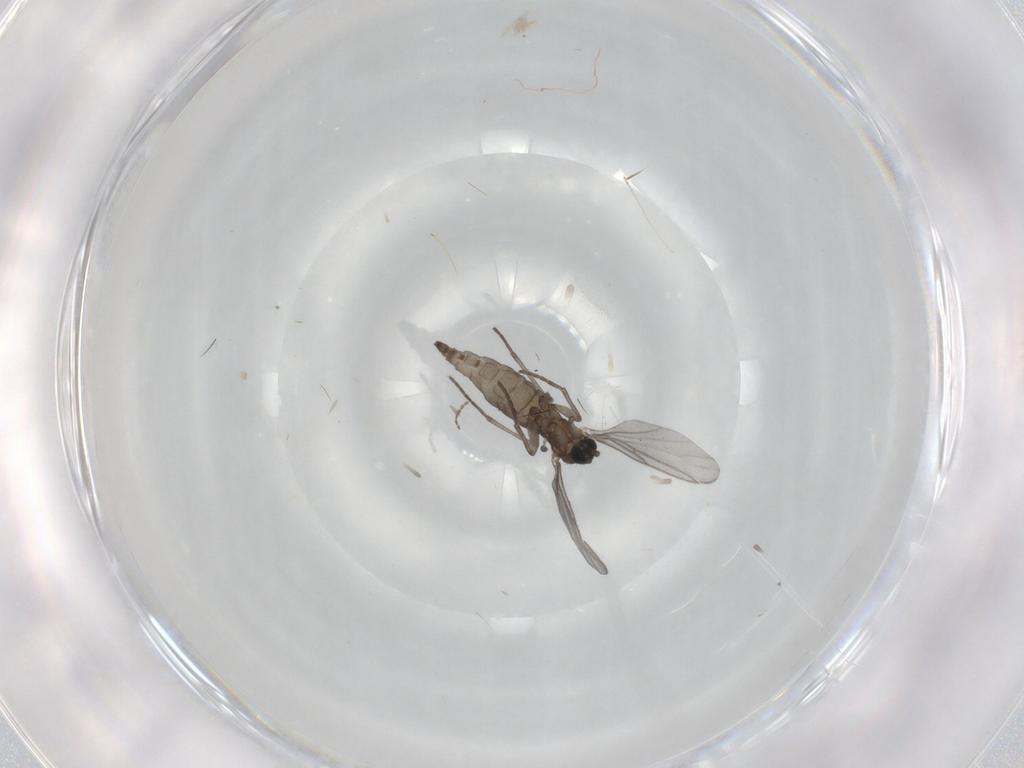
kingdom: Animalia
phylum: Arthropoda
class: Insecta
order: Diptera
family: Sciaridae
